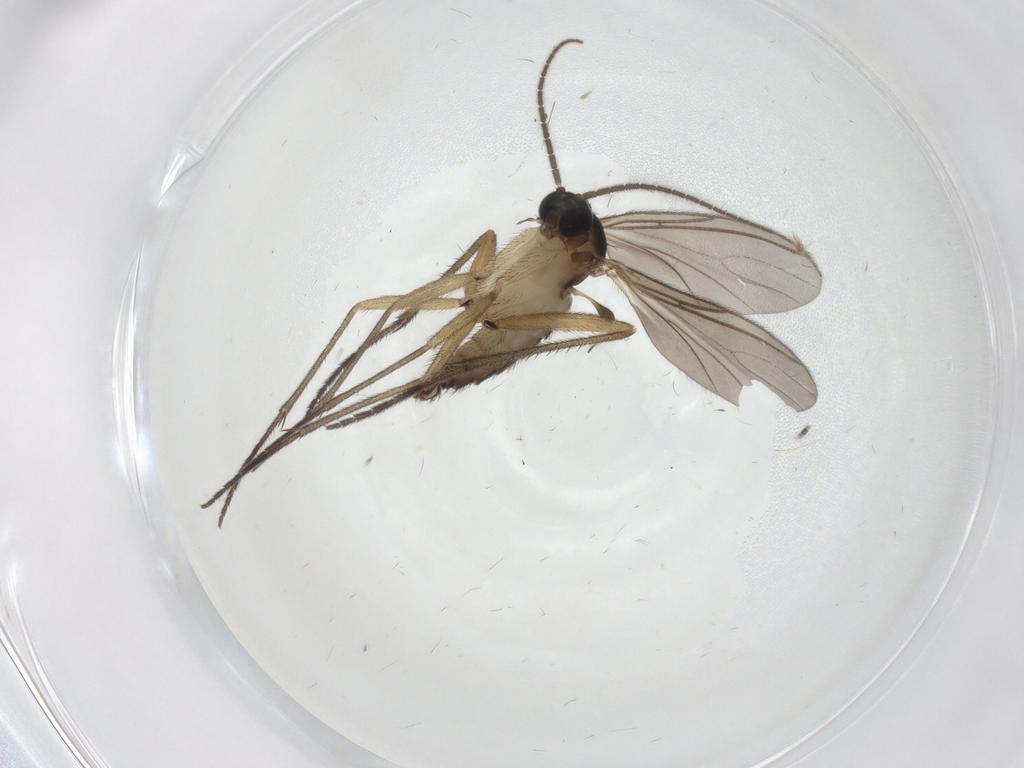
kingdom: Animalia
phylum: Arthropoda
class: Insecta
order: Diptera
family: Sciaridae
